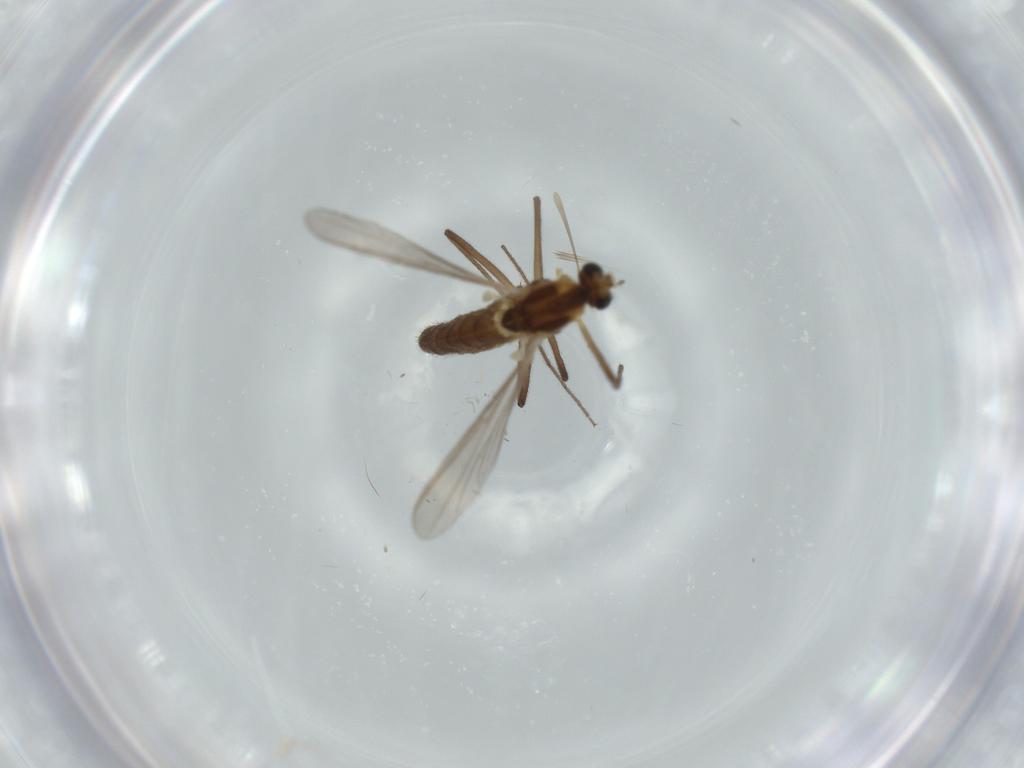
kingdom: Animalia
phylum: Arthropoda
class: Insecta
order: Diptera
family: Chironomidae
